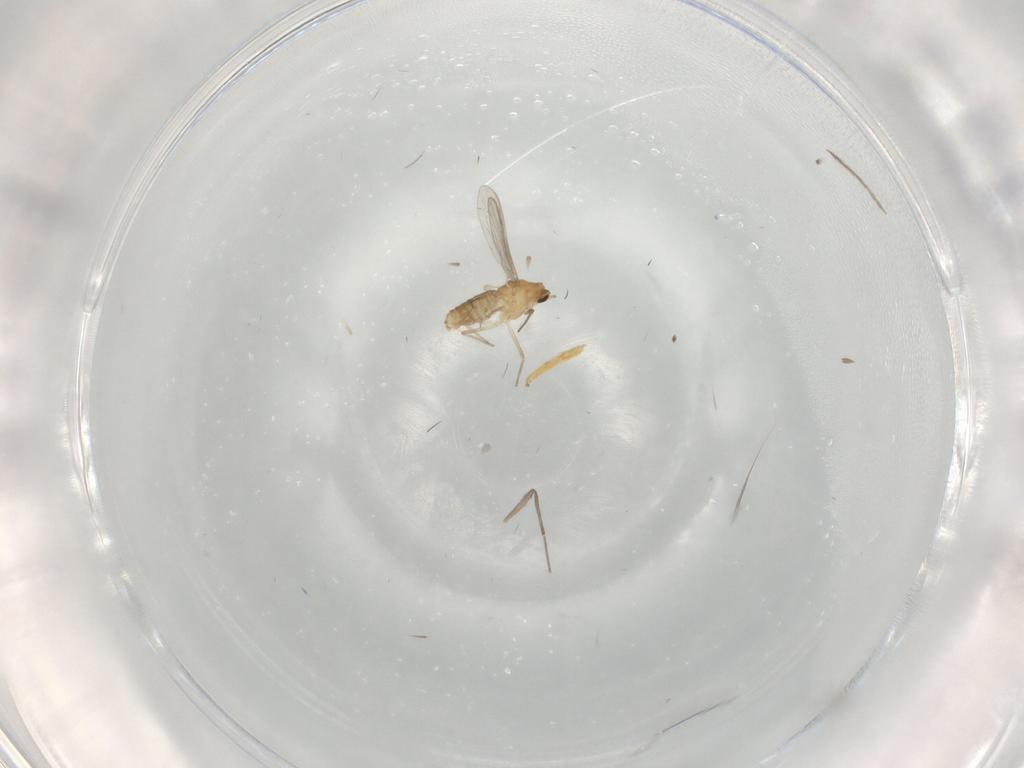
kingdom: Animalia
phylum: Arthropoda
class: Insecta
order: Diptera
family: Chironomidae
